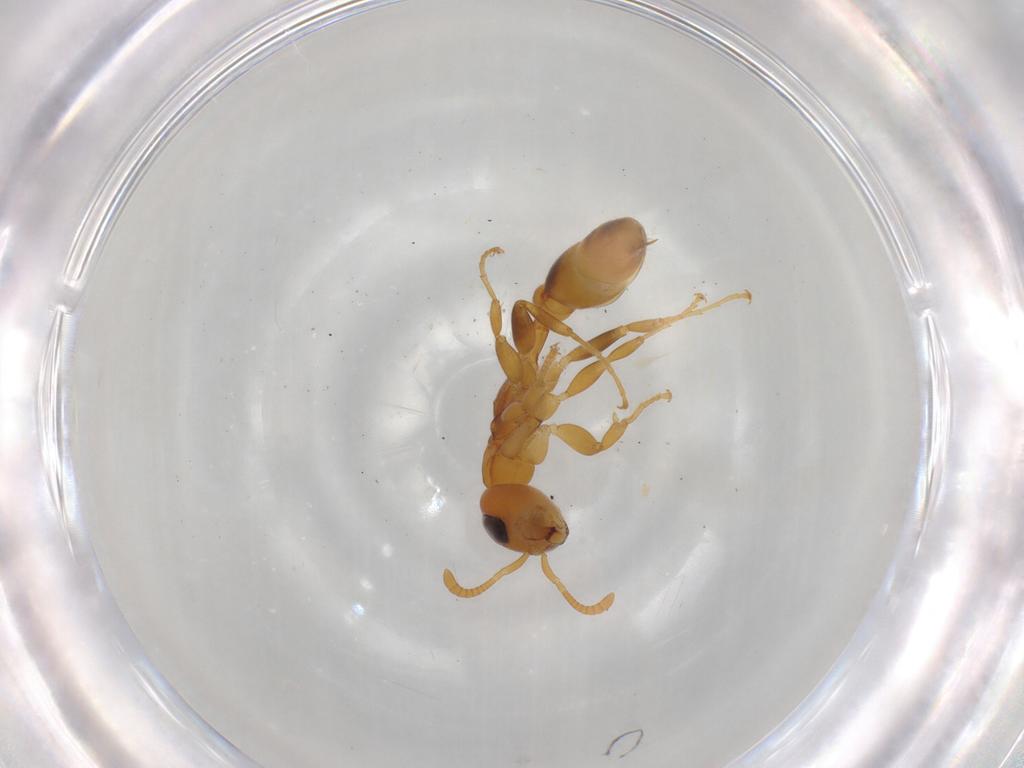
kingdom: Animalia
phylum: Arthropoda
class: Insecta
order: Hymenoptera
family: Formicidae
